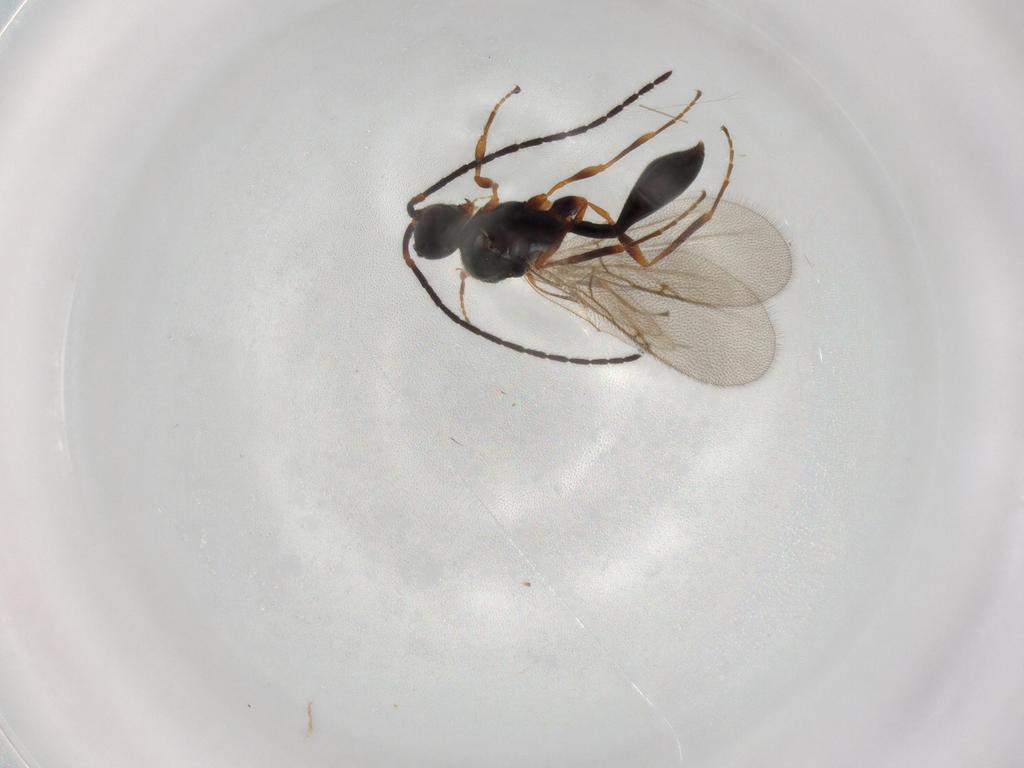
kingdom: Animalia
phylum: Arthropoda
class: Insecta
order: Hymenoptera
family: Diapriidae
